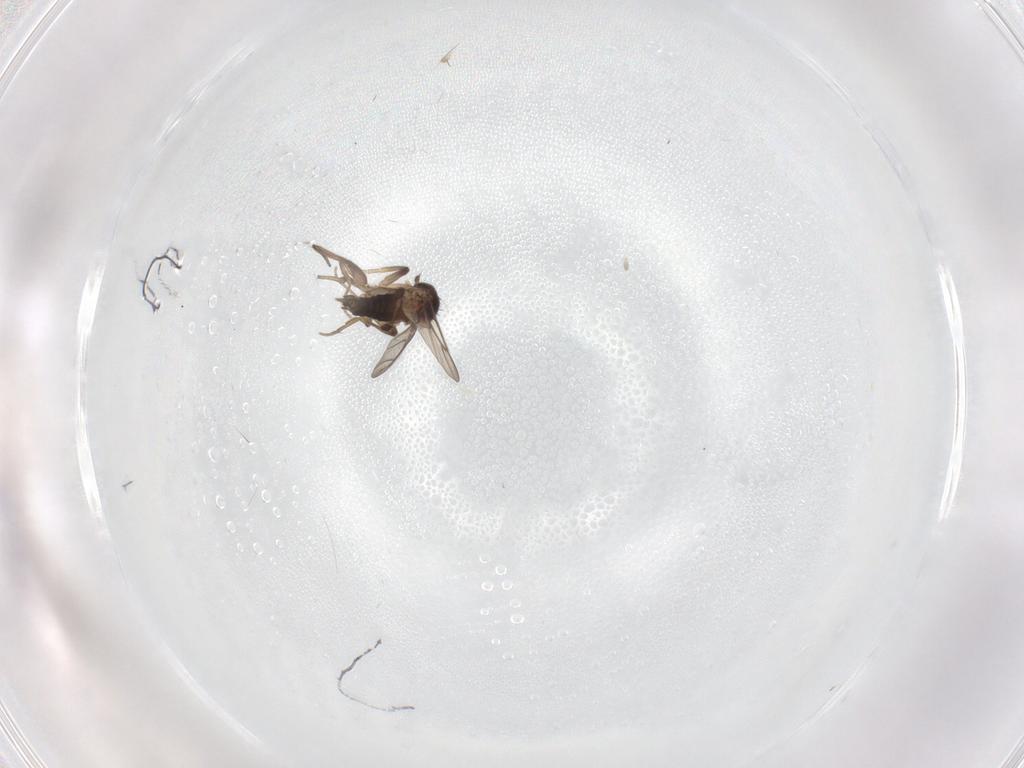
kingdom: Animalia
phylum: Arthropoda
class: Insecta
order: Diptera
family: Phoridae
